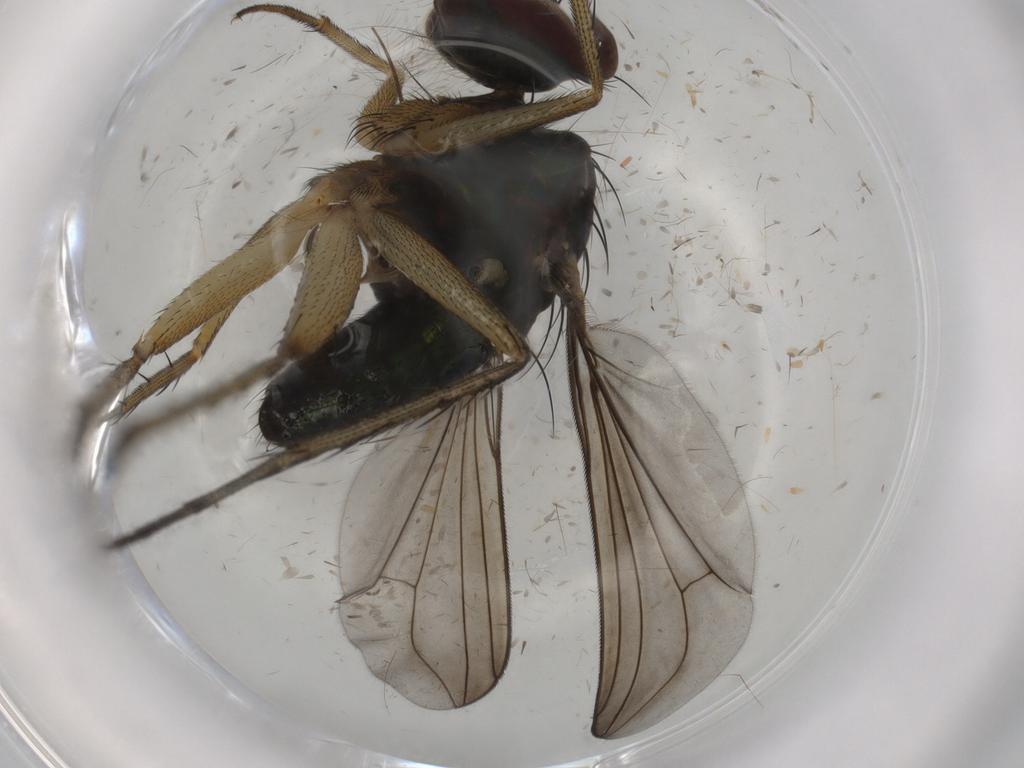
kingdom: Animalia
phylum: Arthropoda
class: Insecta
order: Diptera
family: Dolichopodidae
